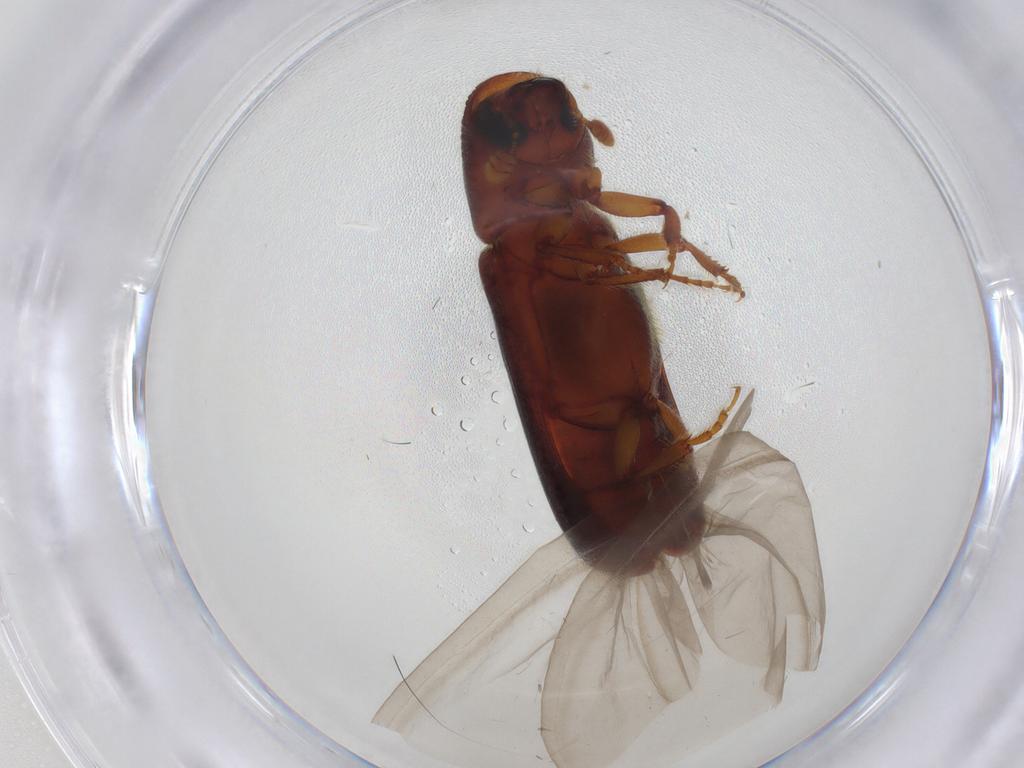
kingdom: Animalia
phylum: Arthropoda
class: Insecta
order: Coleoptera
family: Curculionidae
